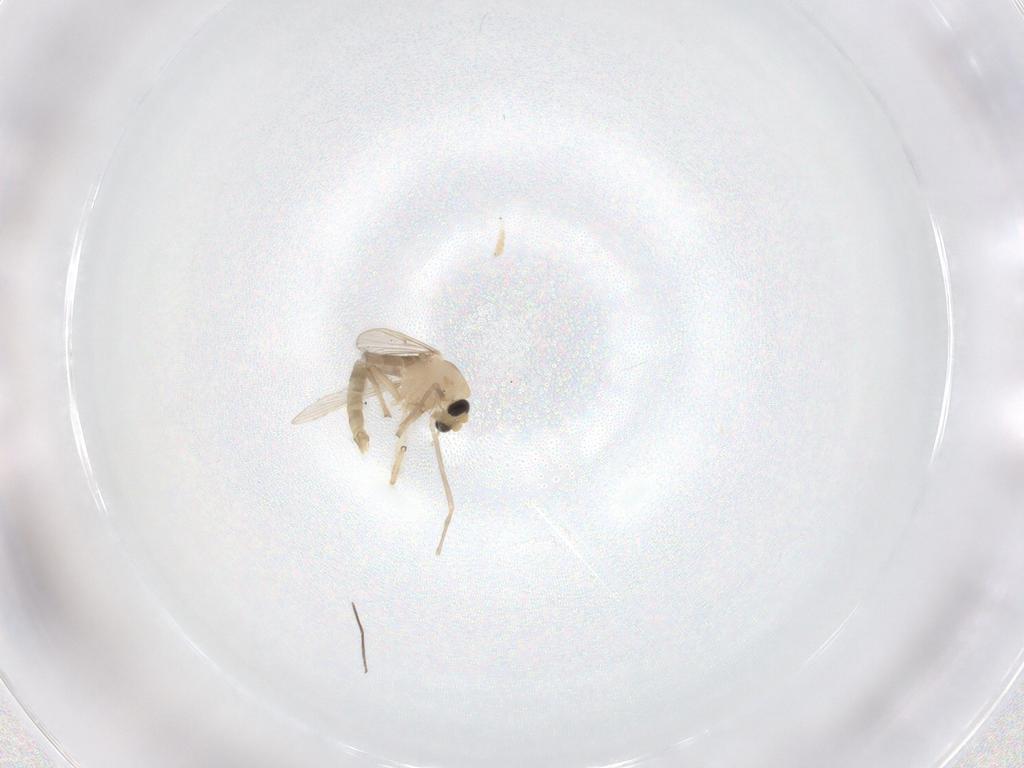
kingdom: Animalia
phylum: Arthropoda
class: Insecta
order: Diptera
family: Chironomidae
